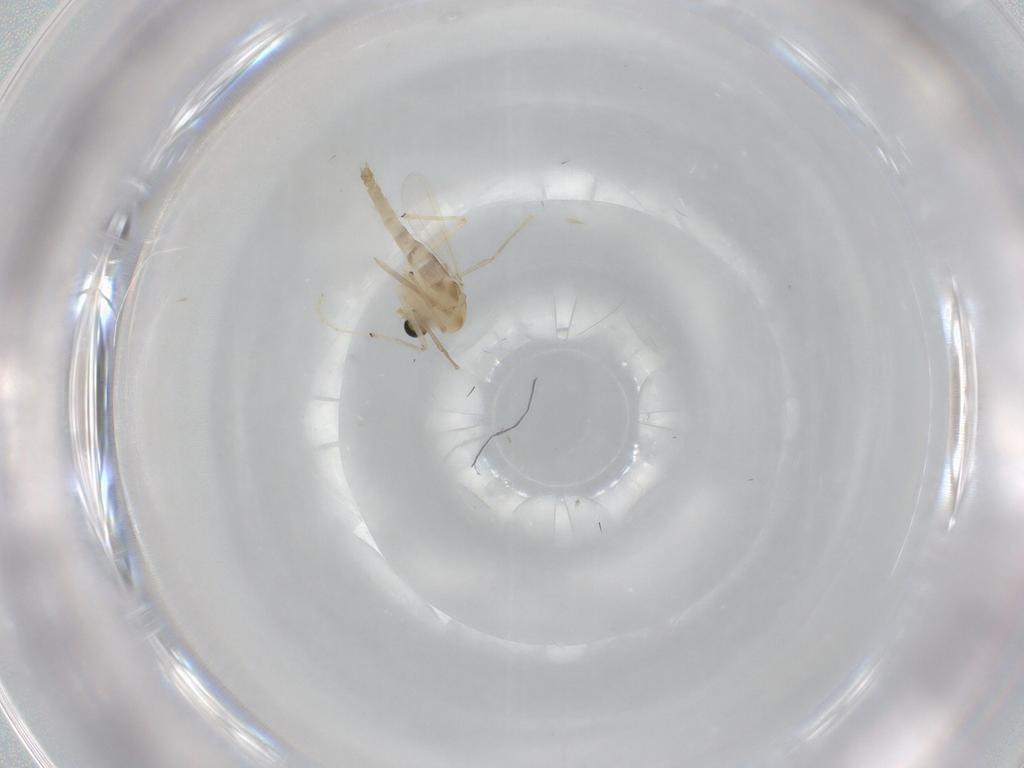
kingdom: Animalia
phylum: Arthropoda
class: Insecta
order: Diptera
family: Chironomidae
